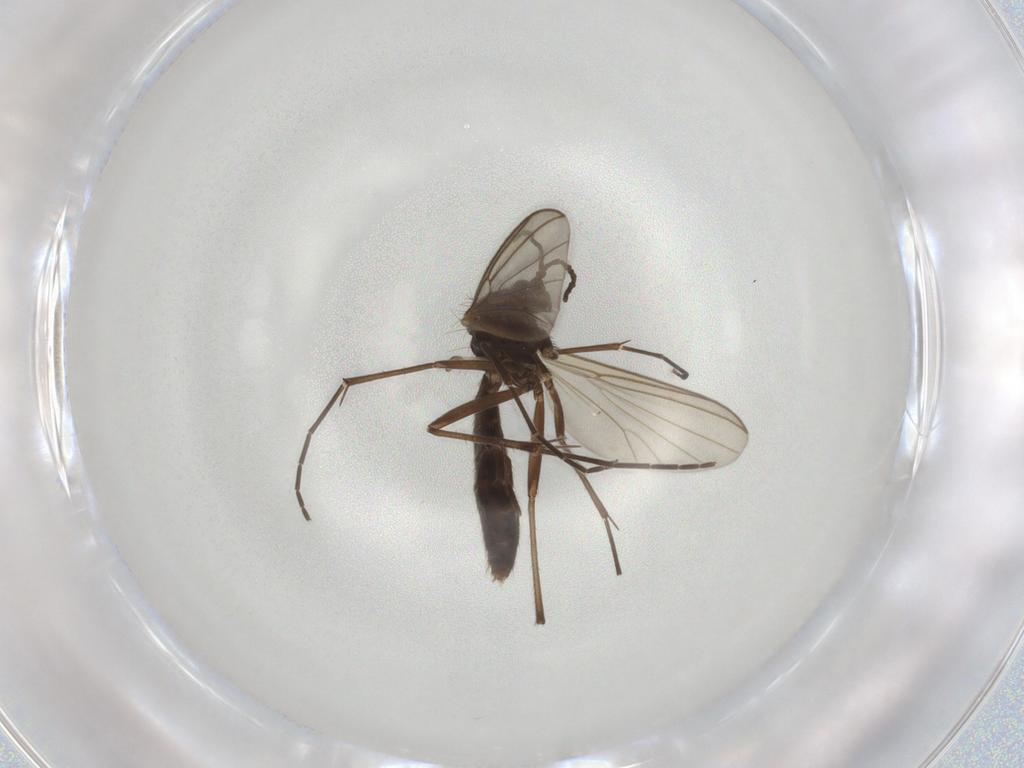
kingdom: Animalia
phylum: Arthropoda
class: Insecta
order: Diptera
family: Mycetophilidae
